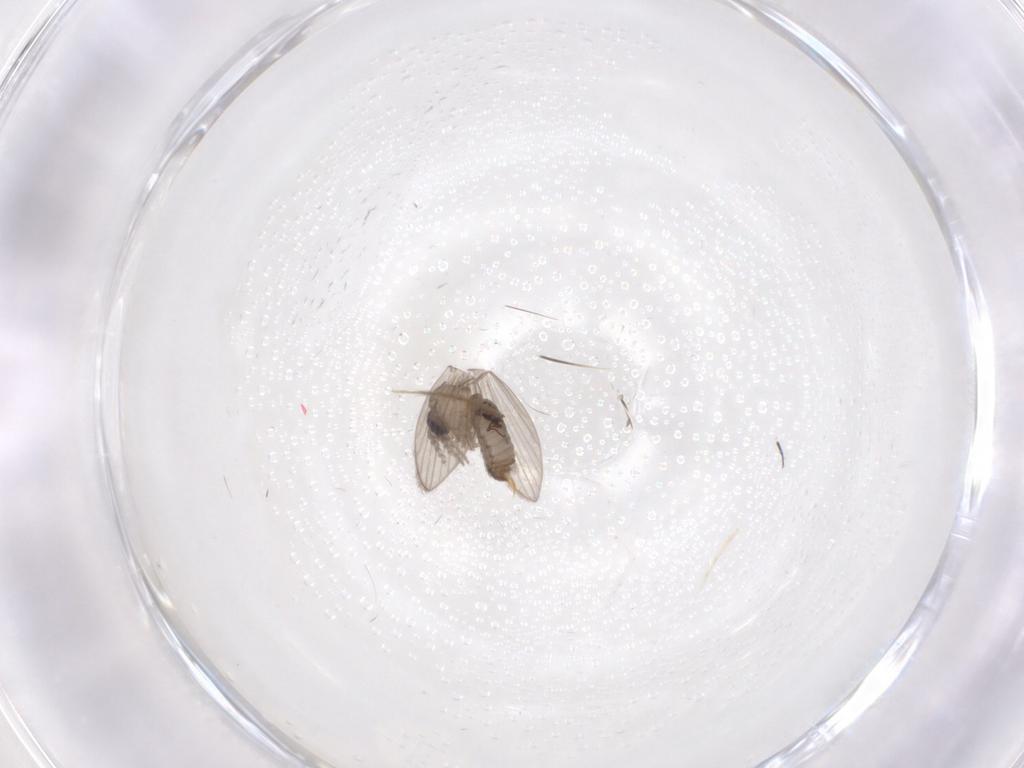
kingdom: Animalia
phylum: Arthropoda
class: Insecta
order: Diptera
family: Psychodidae
